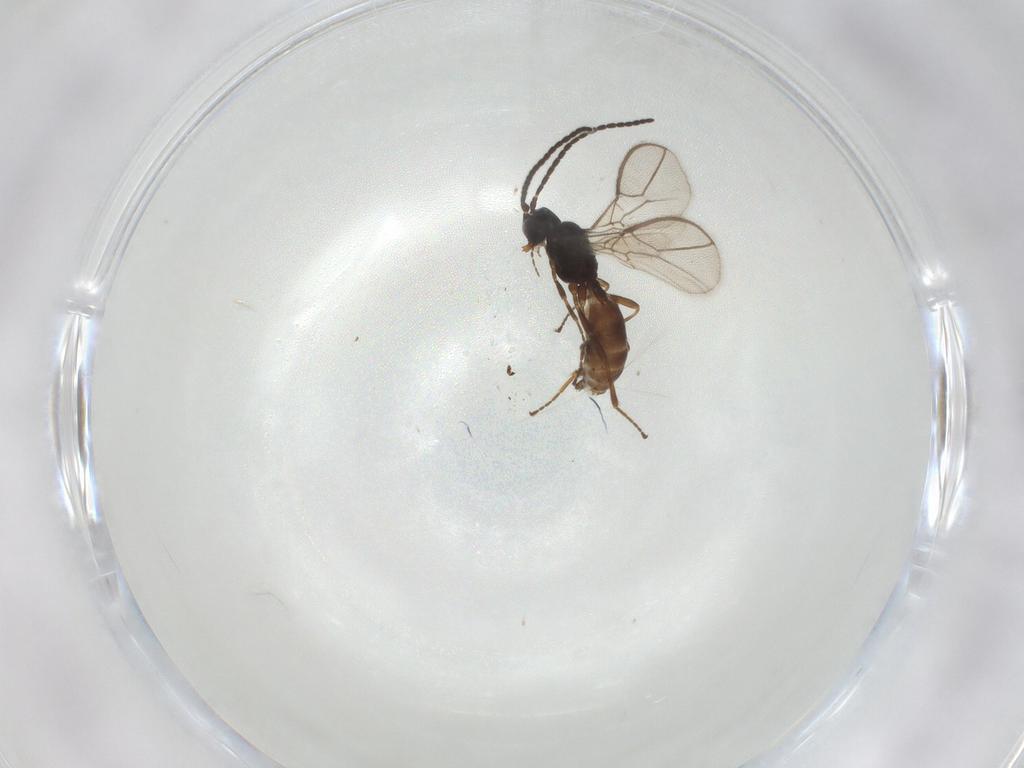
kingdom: Animalia
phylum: Arthropoda
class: Insecta
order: Hymenoptera
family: Braconidae
